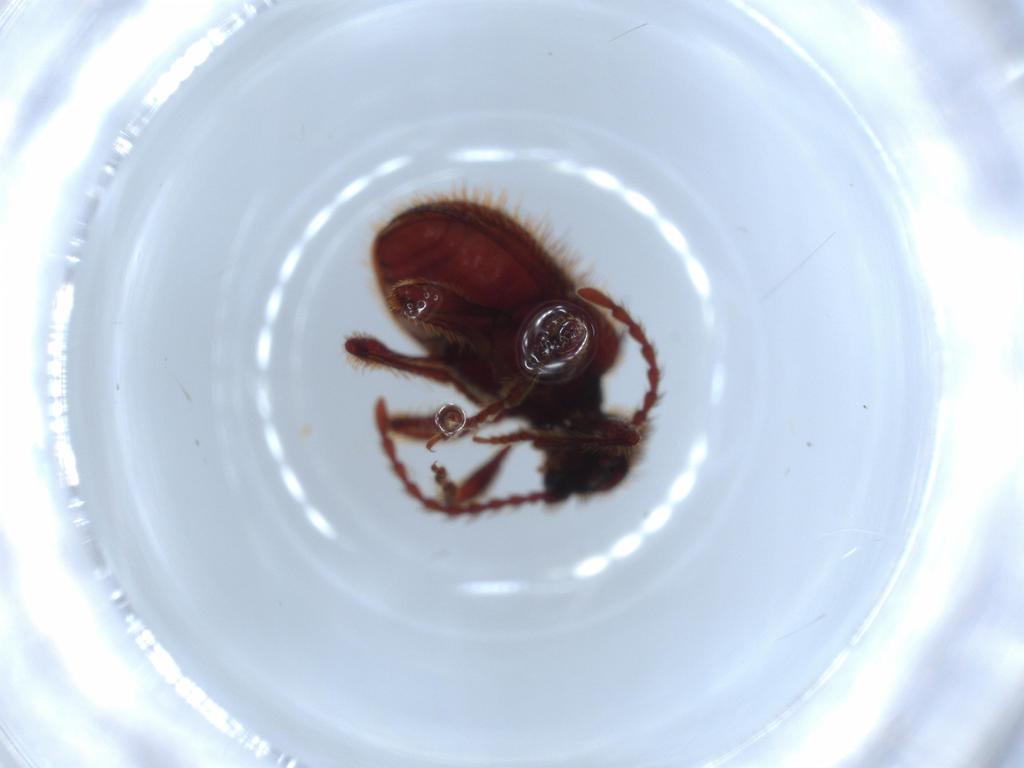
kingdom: Animalia
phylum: Arthropoda
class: Insecta
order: Coleoptera
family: Ptinidae
